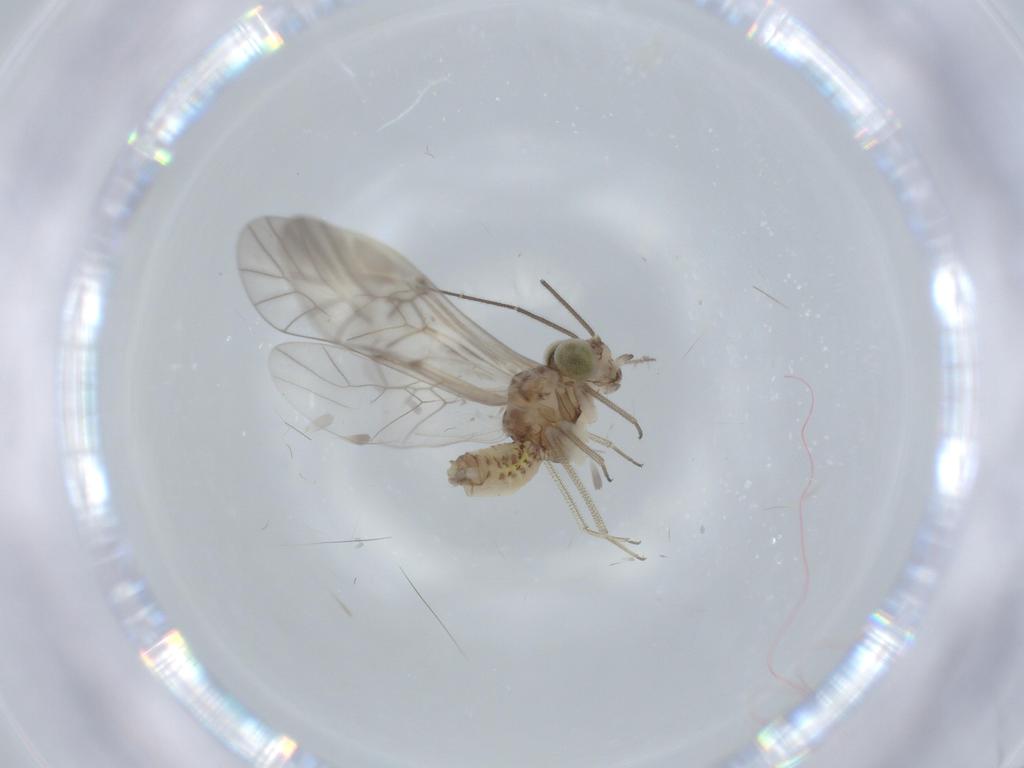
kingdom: Animalia
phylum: Arthropoda
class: Insecta
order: Psocodea
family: Psocidae
